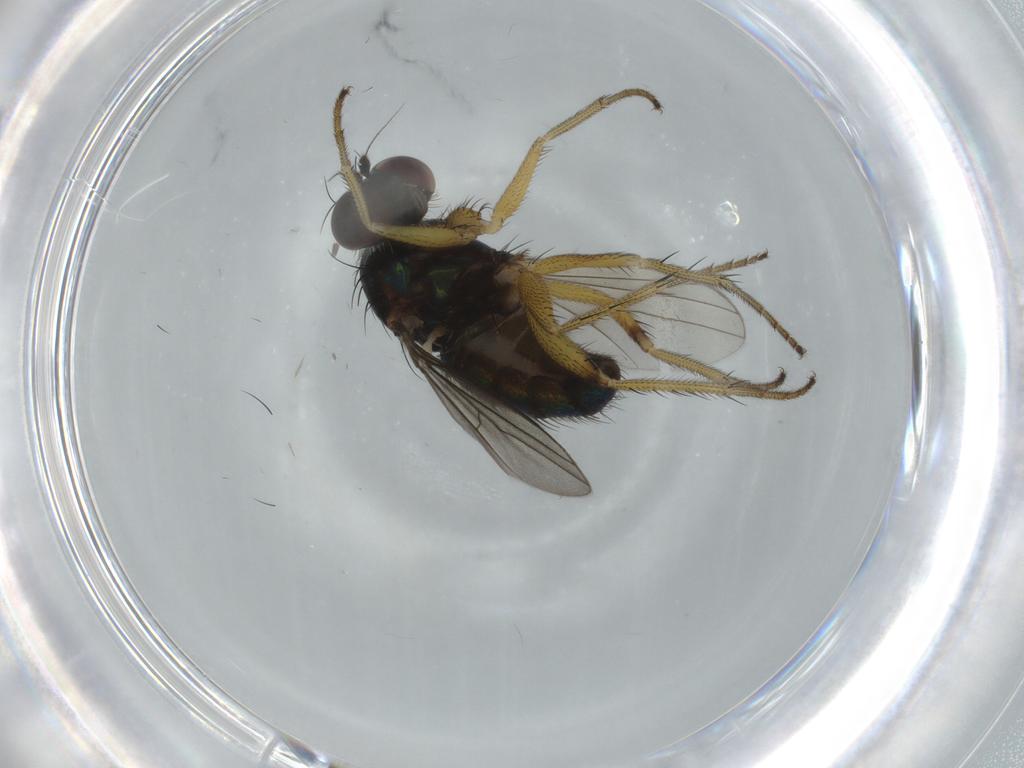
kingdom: Animalia
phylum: Arthropoda
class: Insecta
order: Diptera
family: Dolichopodidae
